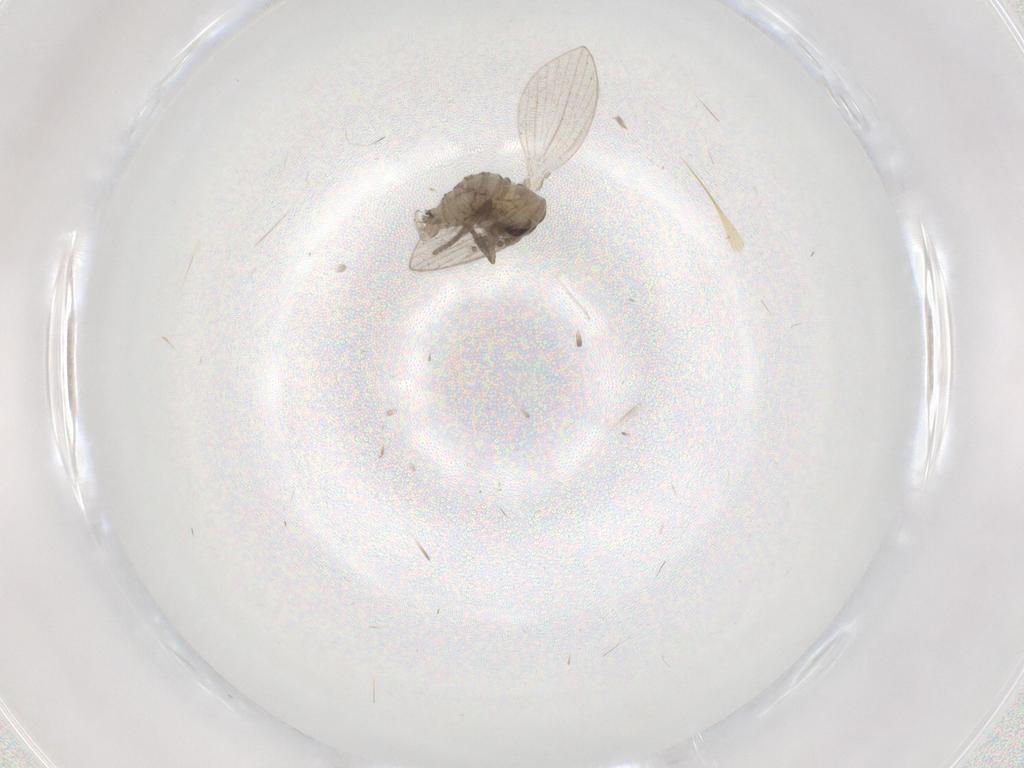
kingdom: Animalia
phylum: Arthropoda
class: Insecta
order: Diptera
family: Psychodidae
